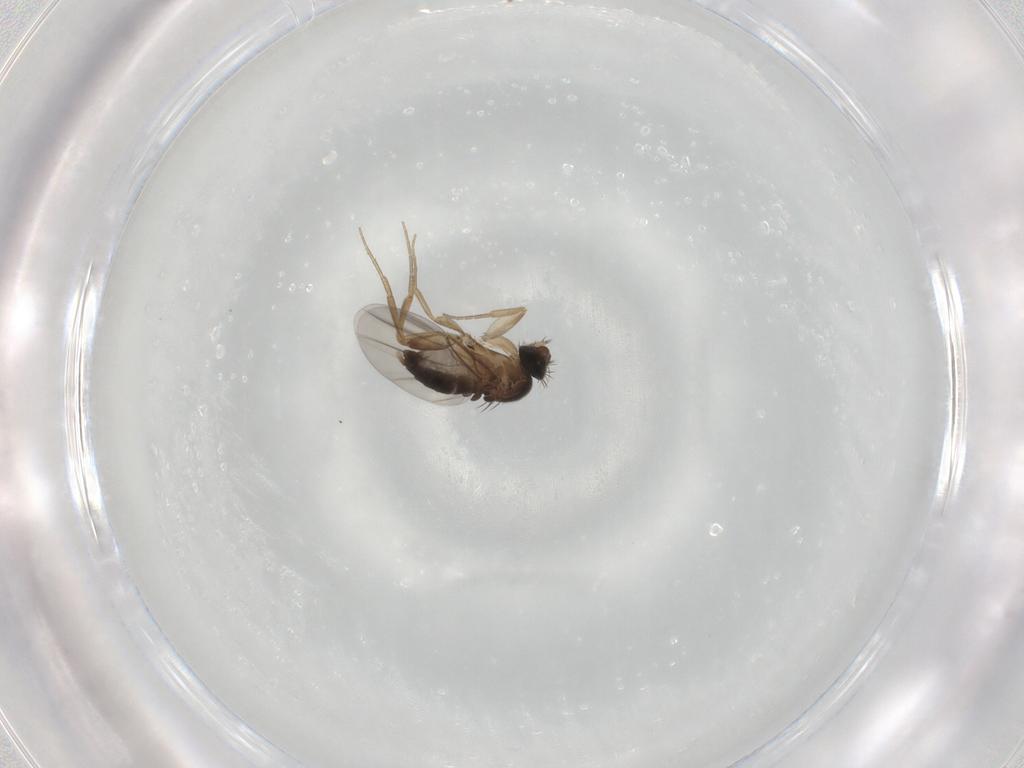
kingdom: Animalia
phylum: Arthropoda
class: Insecta
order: Diptera
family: Phoridae
